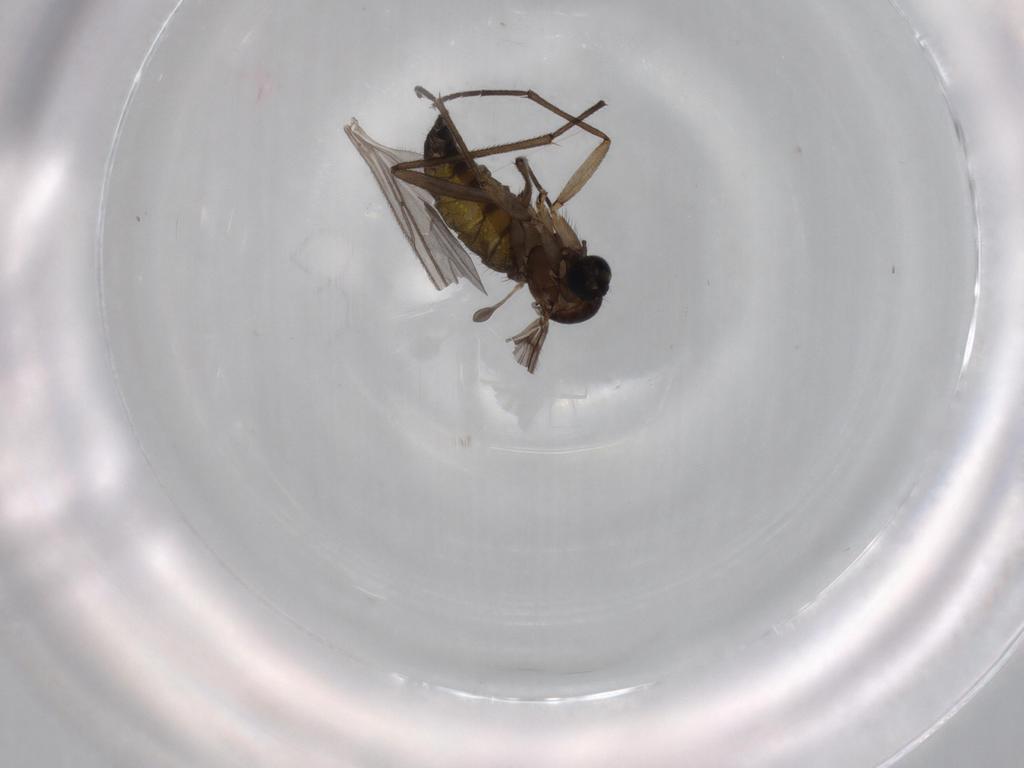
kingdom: Animalia
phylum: Arthropoda
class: Insecta
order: Diptera
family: Sciaridae
